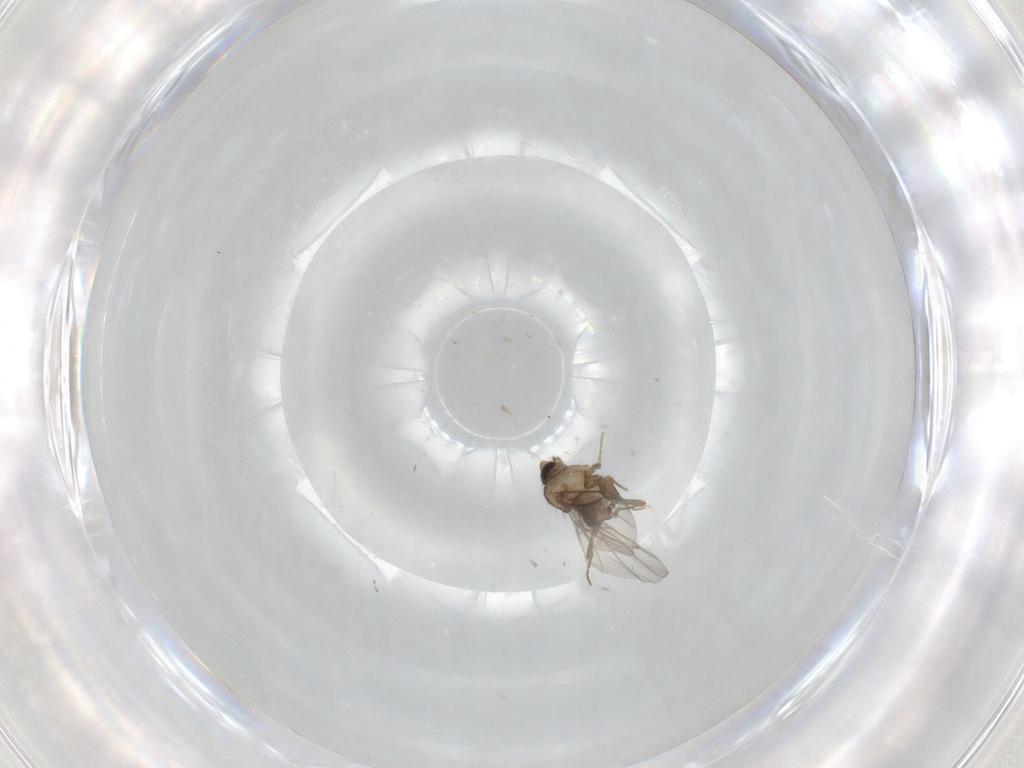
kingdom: Animalia
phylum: Arthropoda
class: Insecta
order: Diptera
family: Cecidomyiidae
